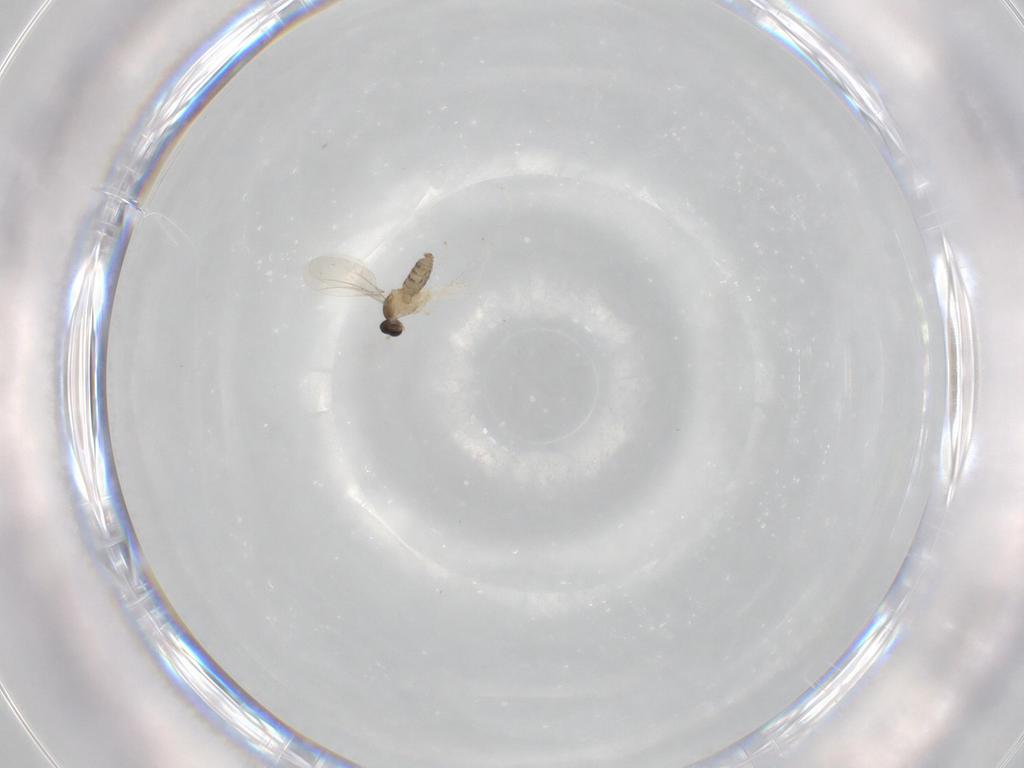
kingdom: Animalia
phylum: Arthropoda
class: Insecta
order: Diptera
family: Cecidomyiidae
